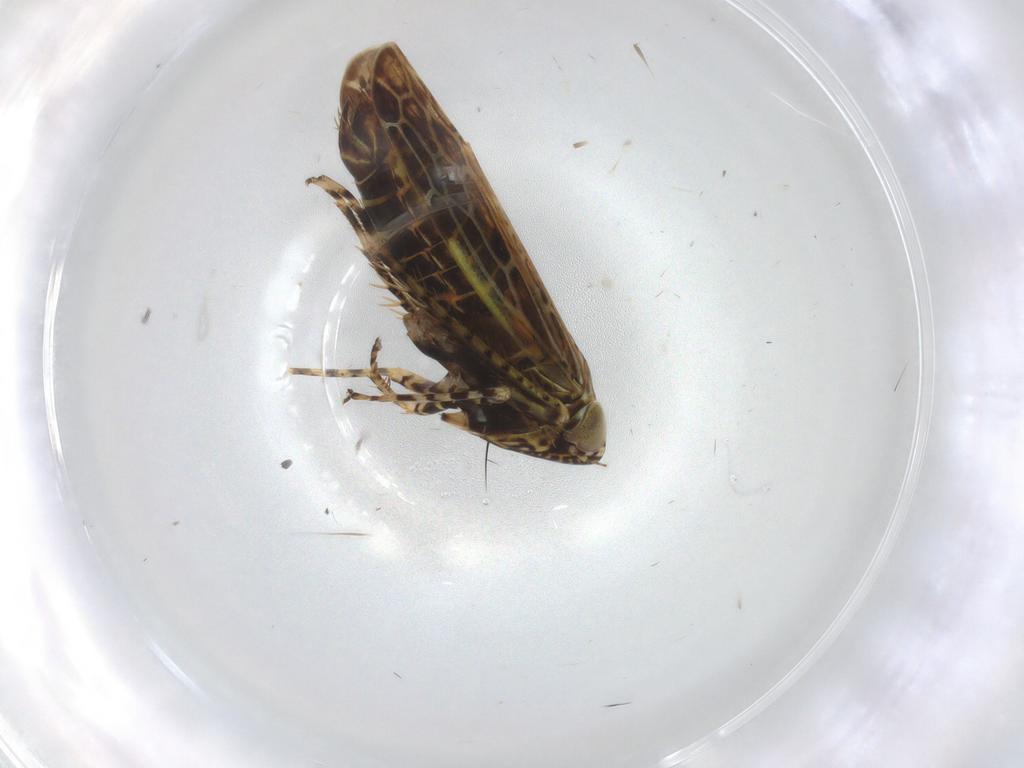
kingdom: Animalia
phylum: Arthropoda
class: Insecta
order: Hemiptera
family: Cicadellidae
